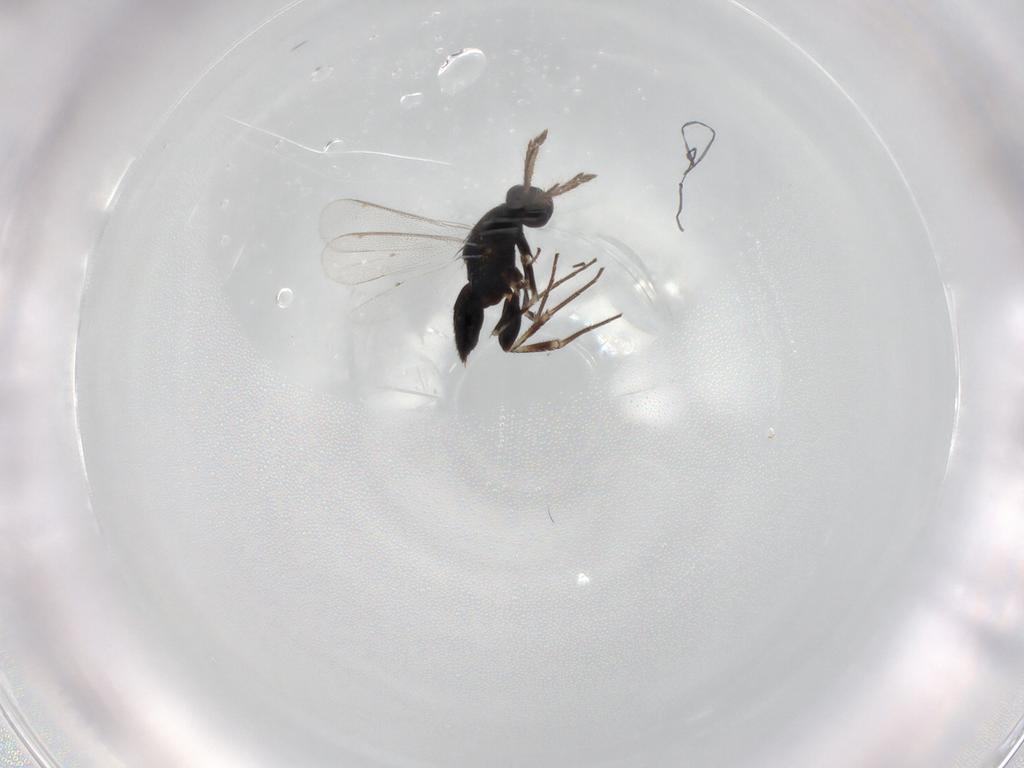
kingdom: Animalia
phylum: Arthropoda
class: Insecta
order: Hymenoptera
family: Eulophidae
